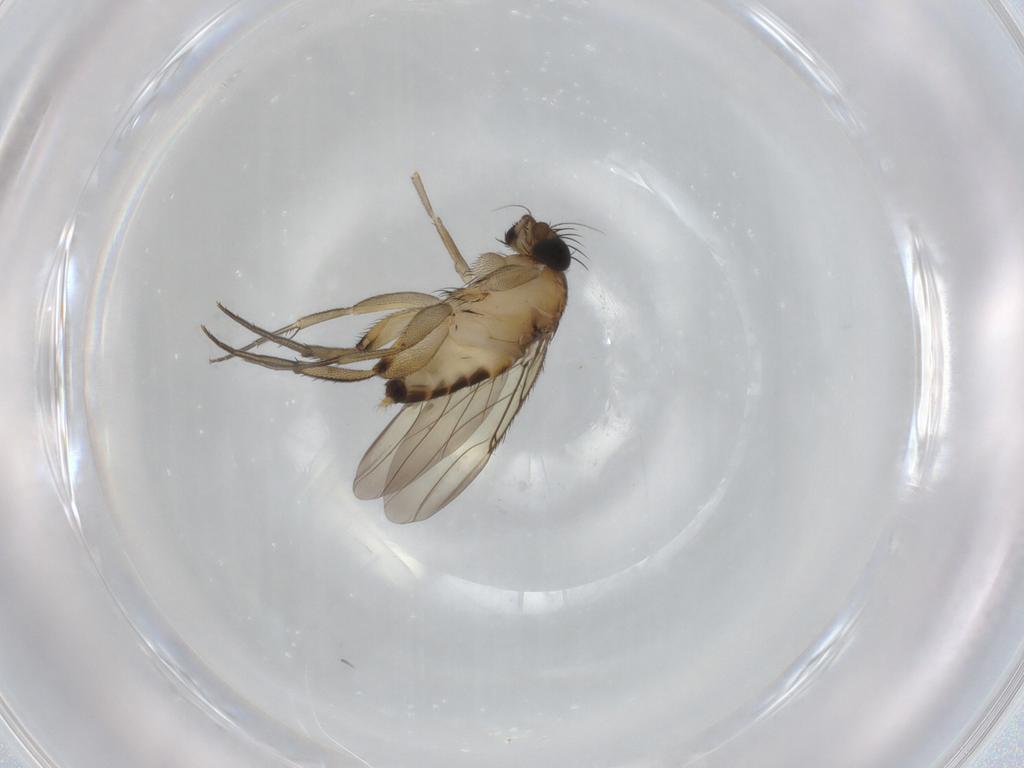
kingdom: Animalia
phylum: Arthropoda
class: Insecta
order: Diptera
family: Phoridae
